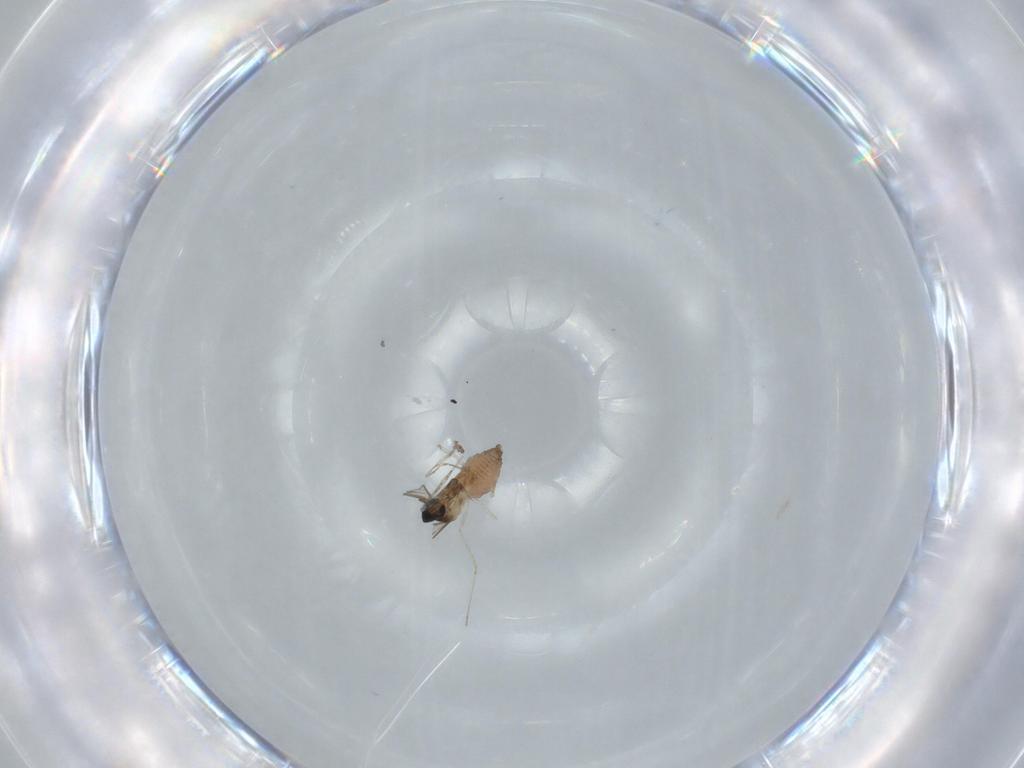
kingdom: Animalia
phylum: Arthropoda
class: Insecta
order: Diptera
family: Cecidomyiidae
